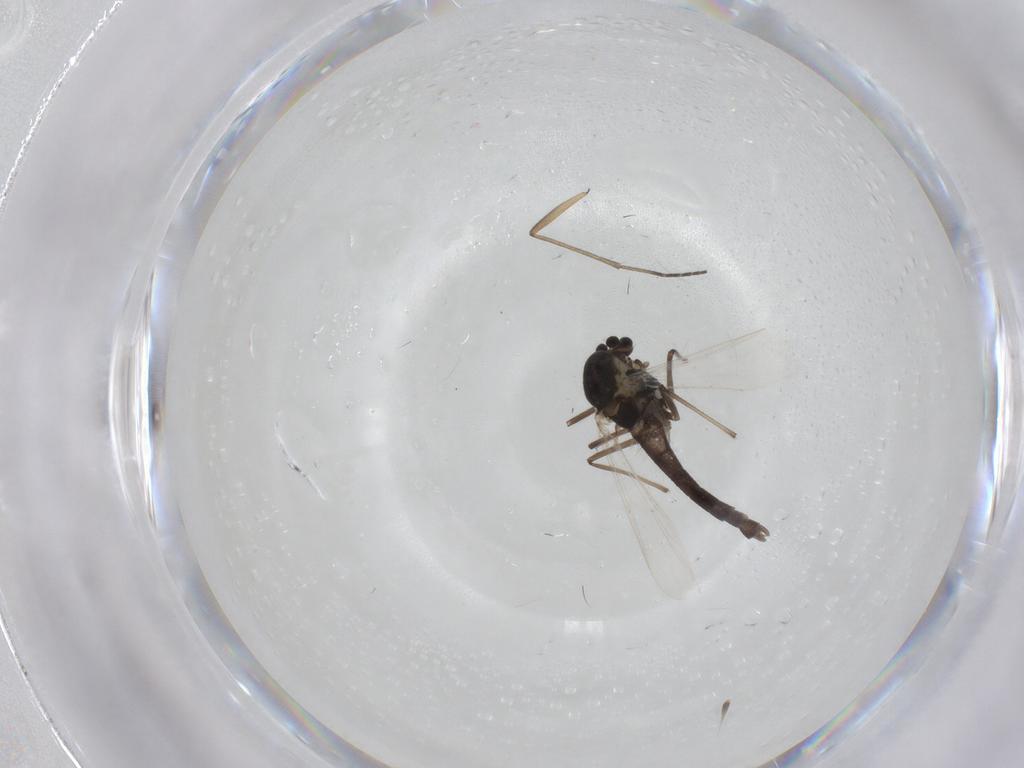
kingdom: Animalia
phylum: Arthropoda
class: Insecta
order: Diptera
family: Chironomidae
